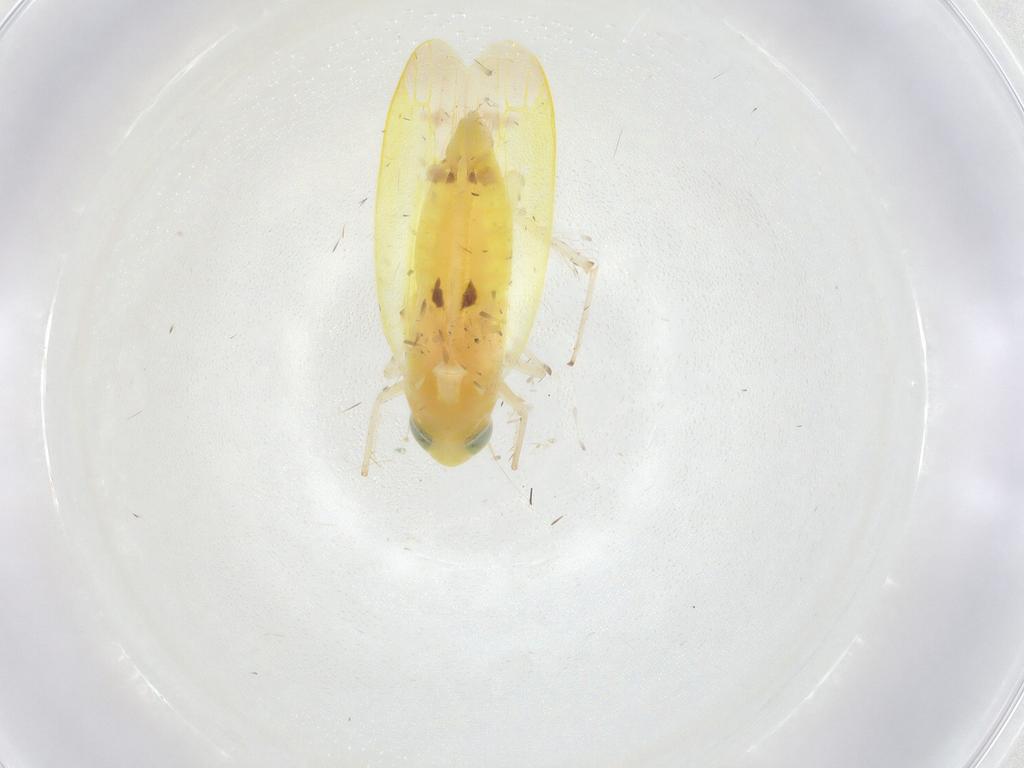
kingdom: Animalia
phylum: Arthropoda
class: Insecta
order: Hemiptera
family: Cicadellidae
